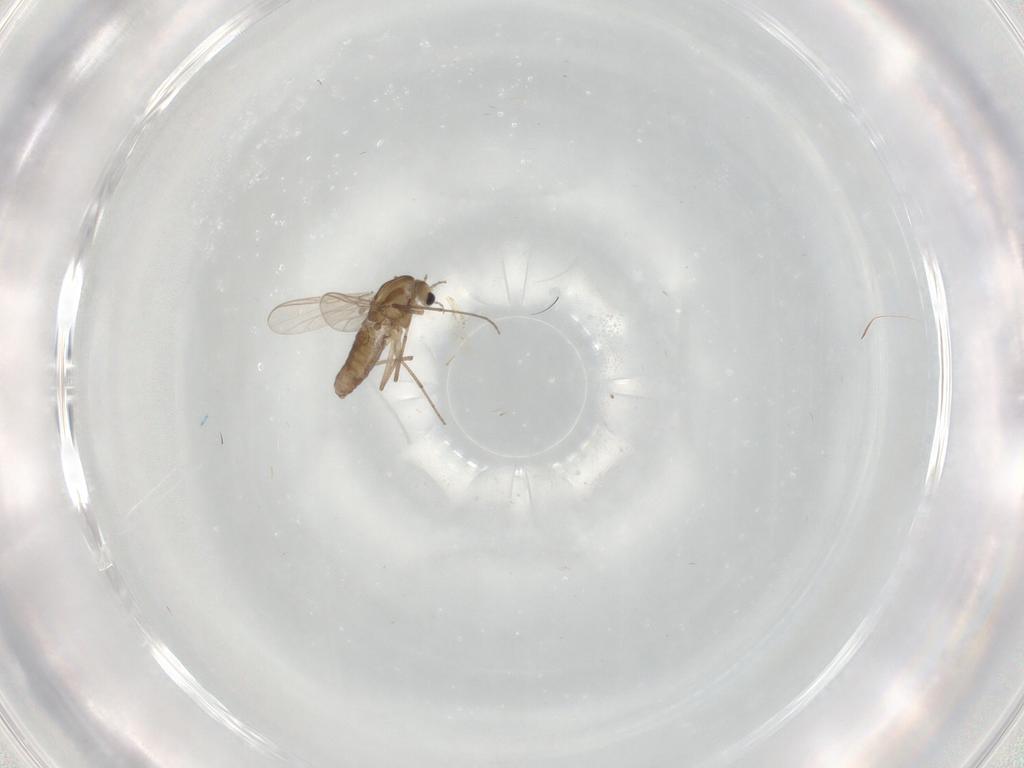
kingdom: Animalia
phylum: Arthropoda
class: Insecta
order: Diptera
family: Chironomidae
